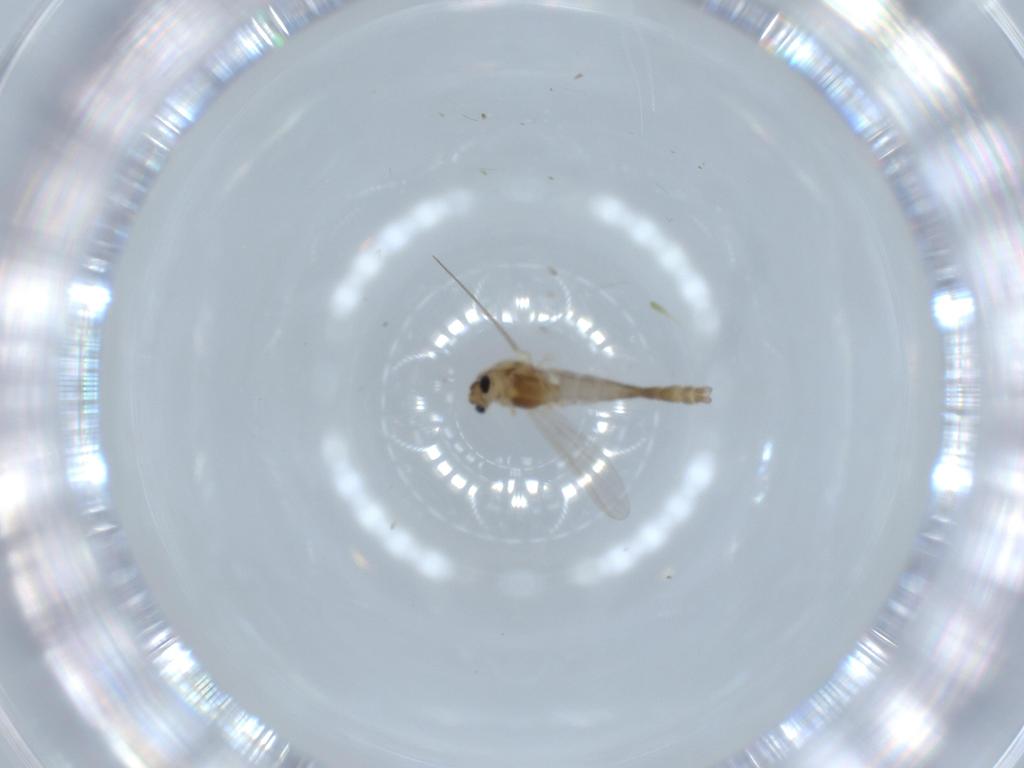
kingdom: Animalia
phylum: Arthropoda
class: Insecta
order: Diptera
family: Chironomidae
